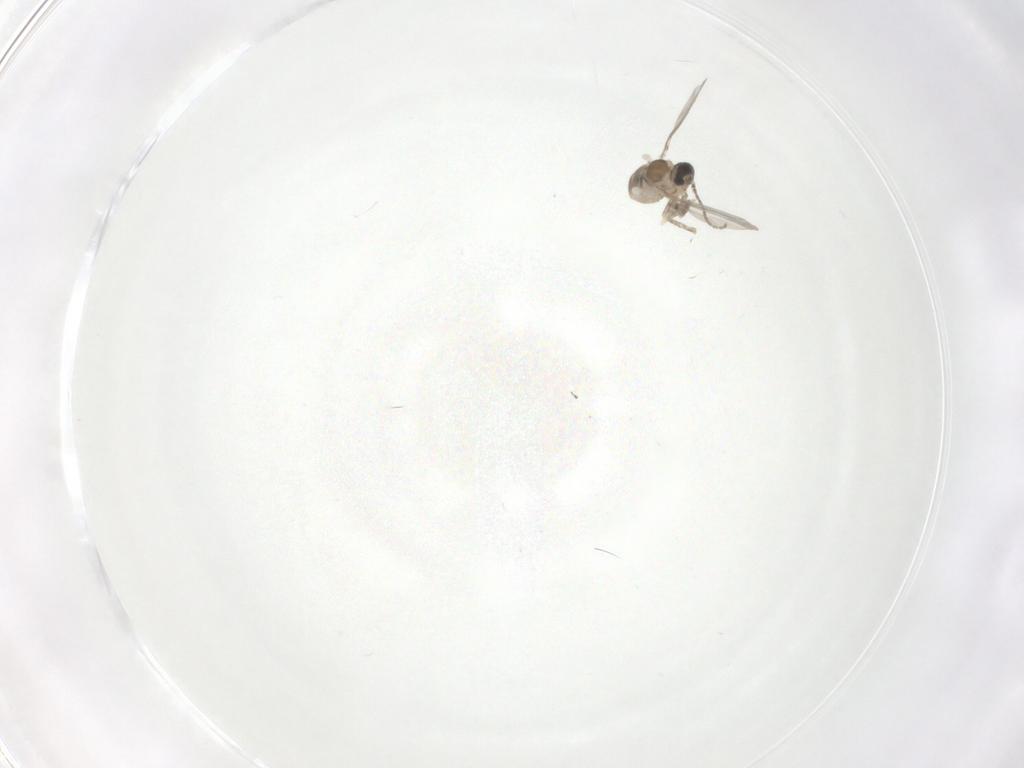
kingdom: Animalia
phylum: Arthropoda
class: Insecta
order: Diptera
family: Cecidomyiidae
